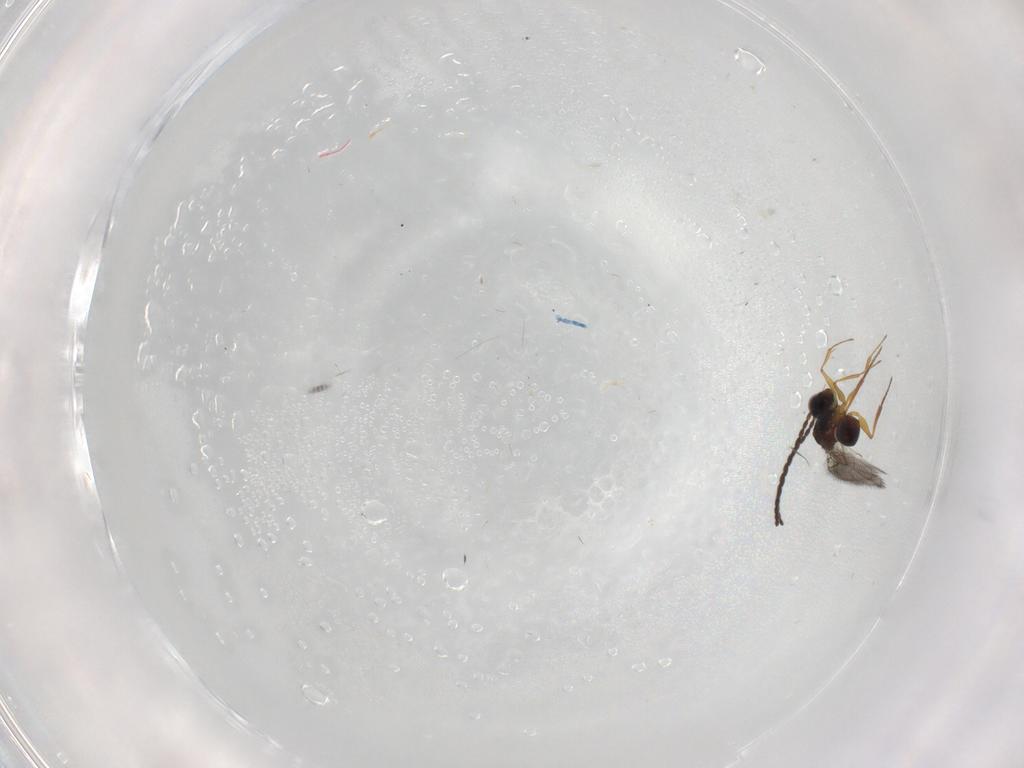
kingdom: Animalia
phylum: Arthropoda
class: Insecta
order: Hymenoptera
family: Figitidae
